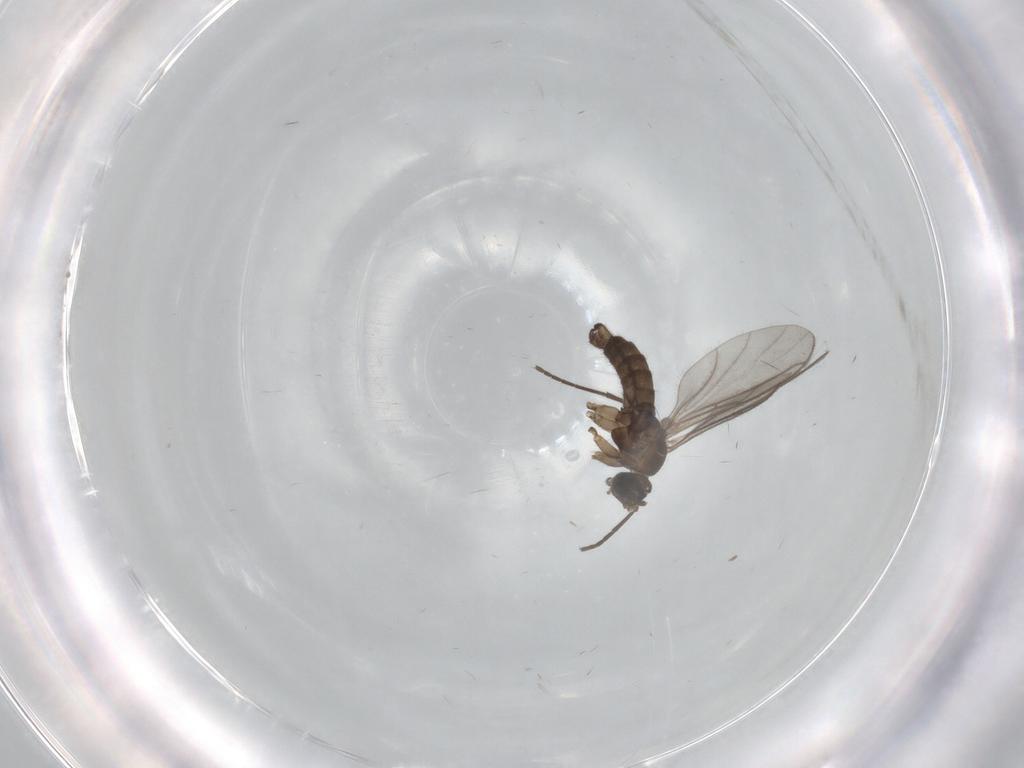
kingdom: Animalia
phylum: Arthropoda
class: Insecta
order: Diptera
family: Sciaridae
